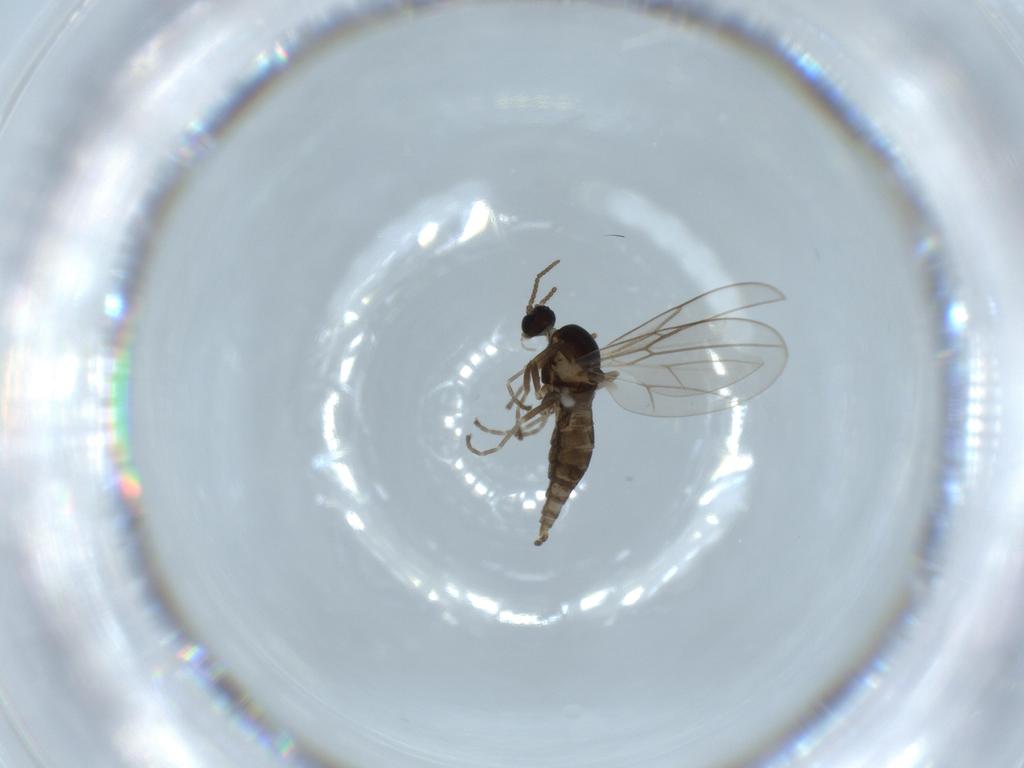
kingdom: Animalia
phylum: Arthropoda
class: Insecta
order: Diptera
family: Cecidomyiidae
